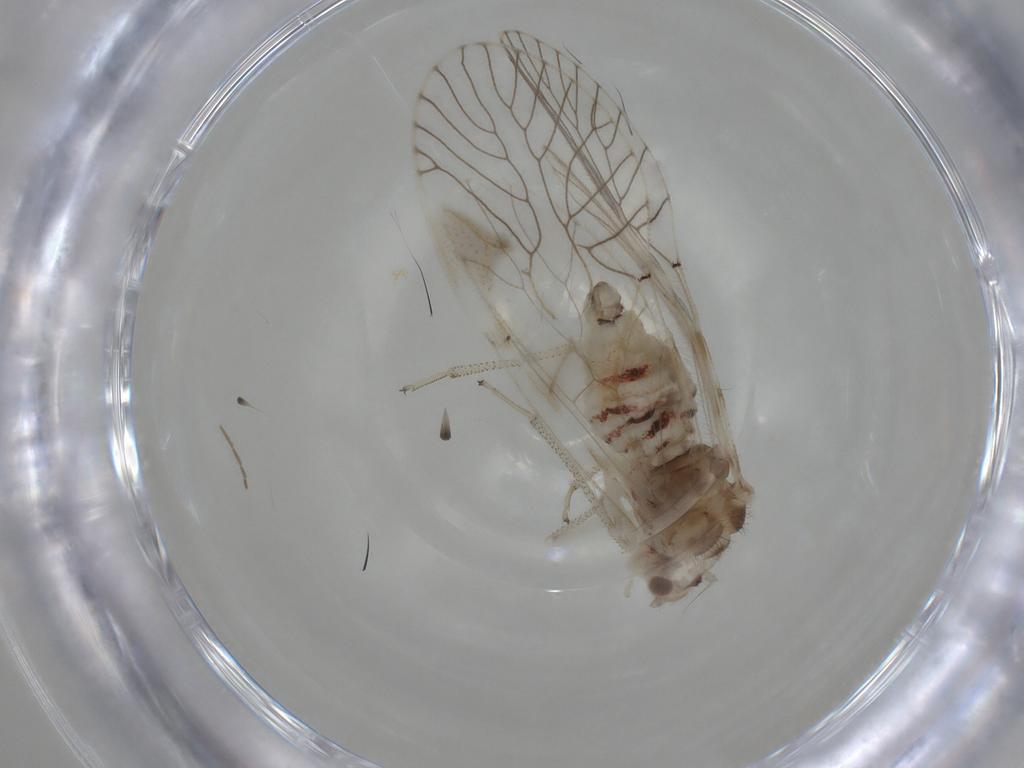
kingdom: Animalia
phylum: Arthropoda
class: Insecta
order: Psocodea
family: Amphipsocidae
